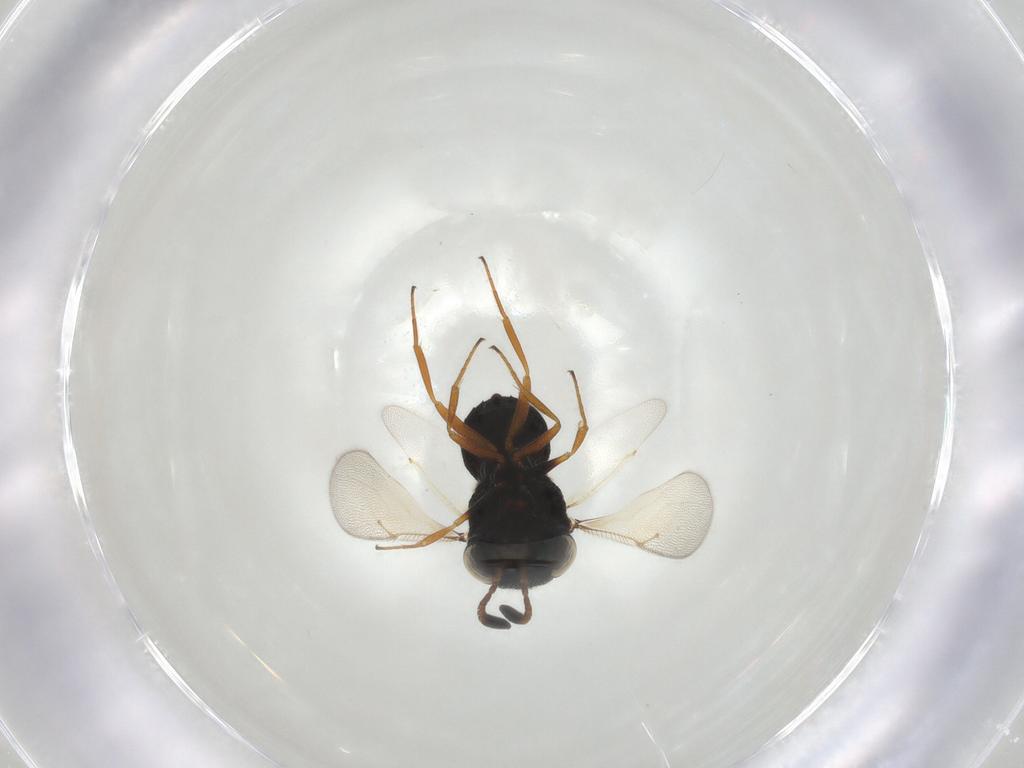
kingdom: Animalia
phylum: Arthropoda
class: Insecta
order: Hymenoptera
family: Scelionidae
